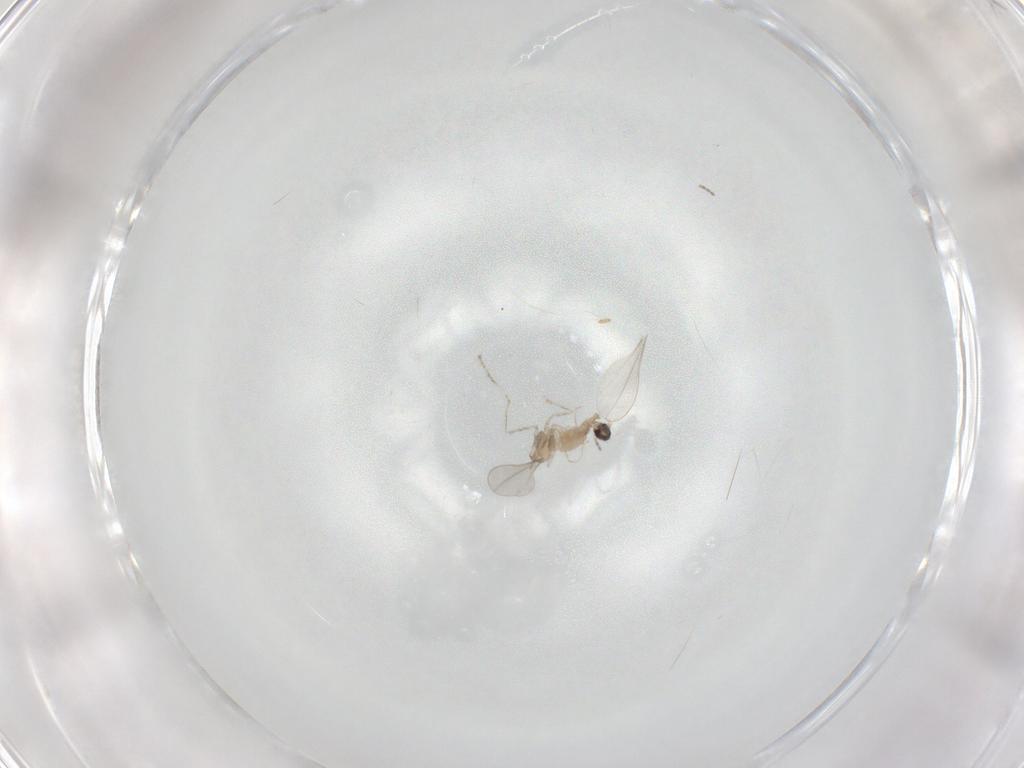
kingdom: Animalia
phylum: Arthropoda
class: Insecta
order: Diptera
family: Cecidomyiidae
